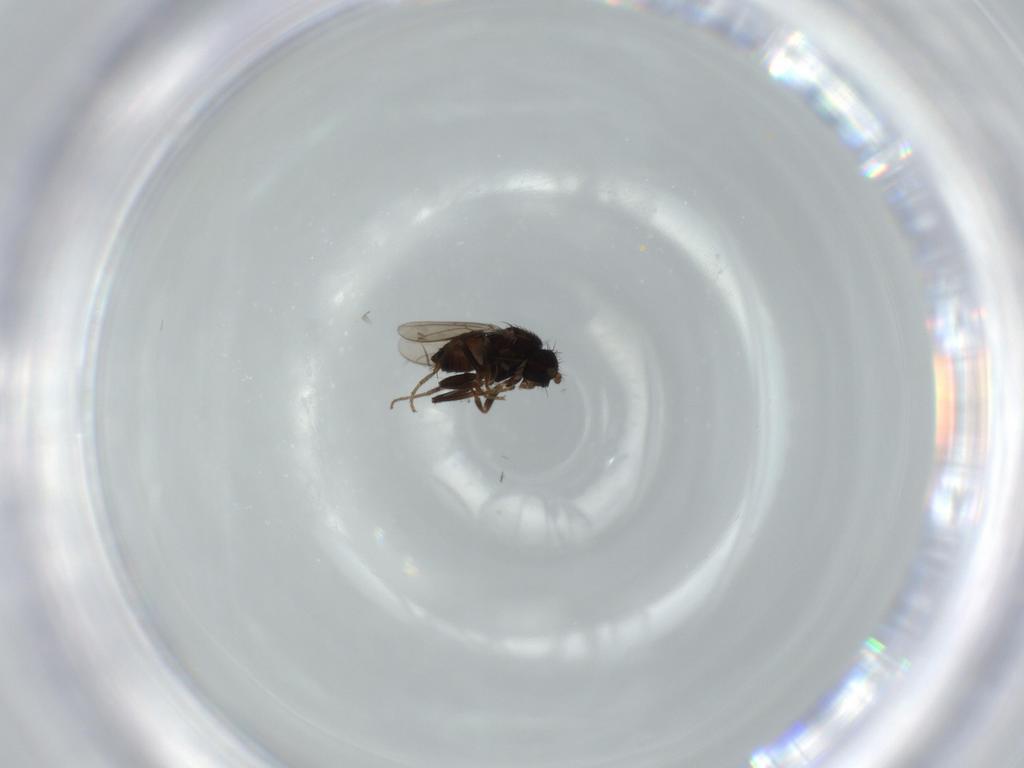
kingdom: Animalia
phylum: Arthropoda
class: Insecta
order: Diptera
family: Sphaeroceridae
